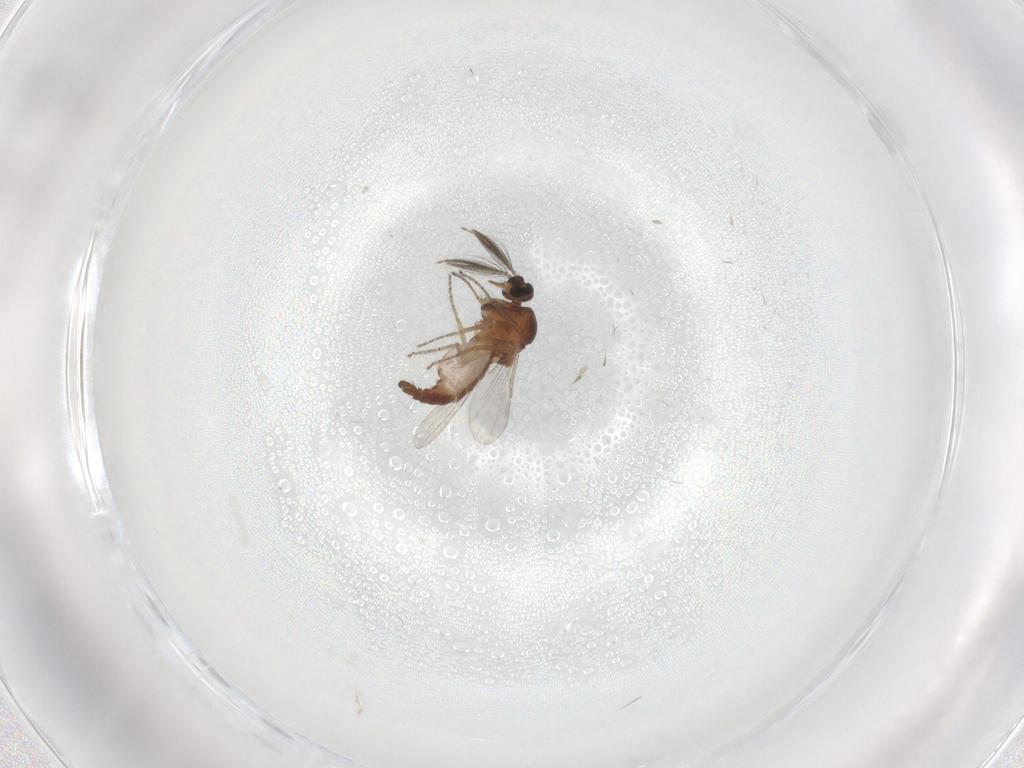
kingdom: Animalia
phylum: Arthropoda
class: Insecta
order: Diptera
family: Ceratopogonidae
